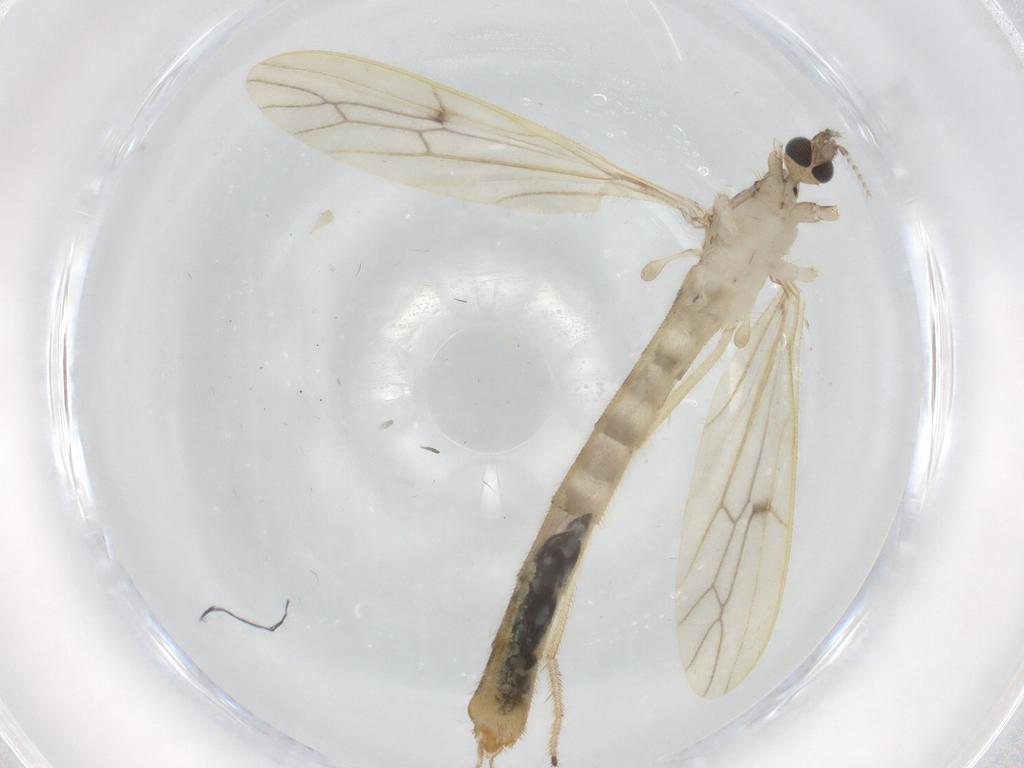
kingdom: Animalia
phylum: Arthropoda
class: Insecta
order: Diptera
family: Limoniidae
